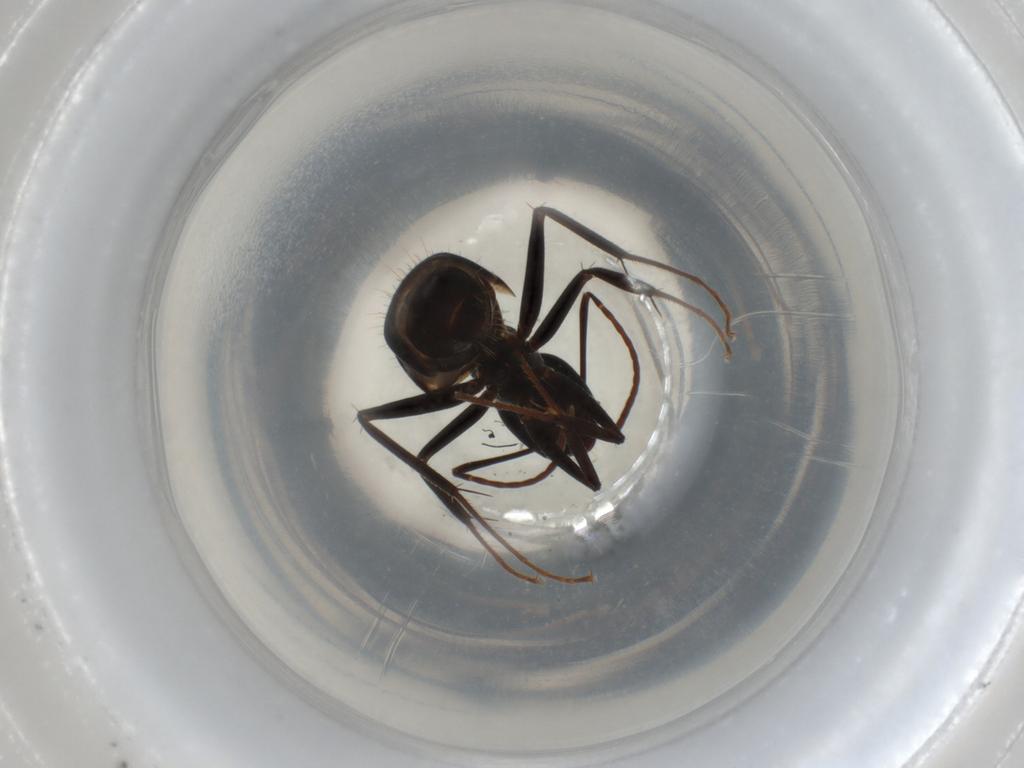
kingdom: Animalia
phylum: Arthropoda
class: Insecta
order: Hymenoptera
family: Formicidae
